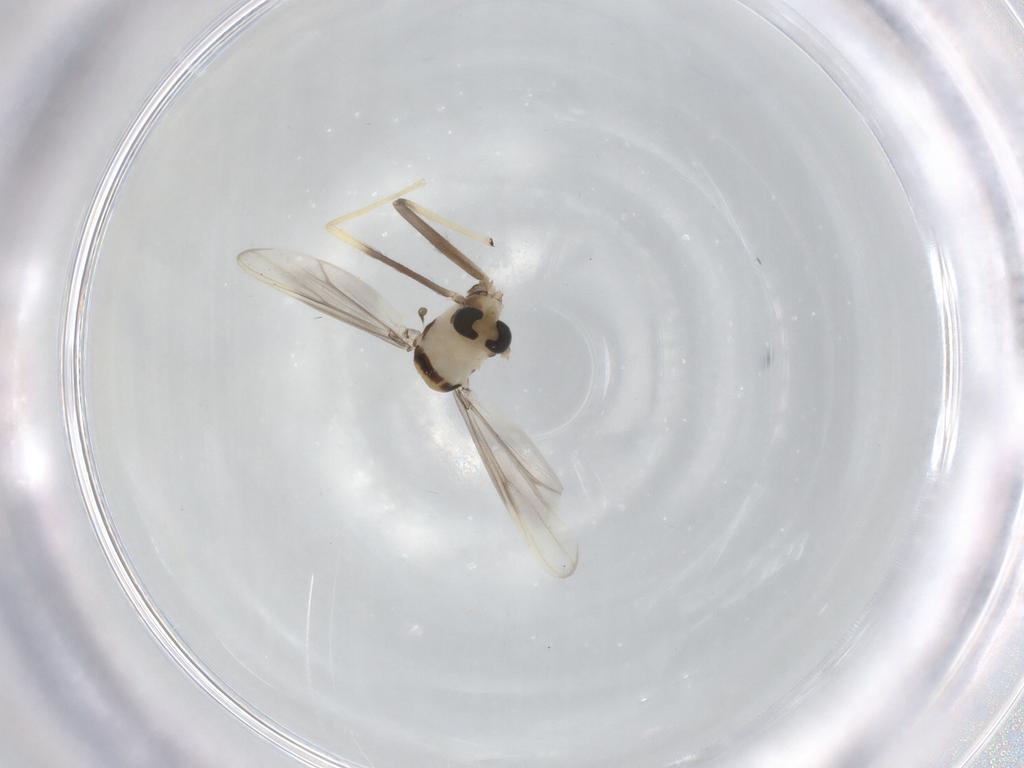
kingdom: Animalia
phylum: Arthropoda
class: Insecta
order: Diptera
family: Chironomidae
